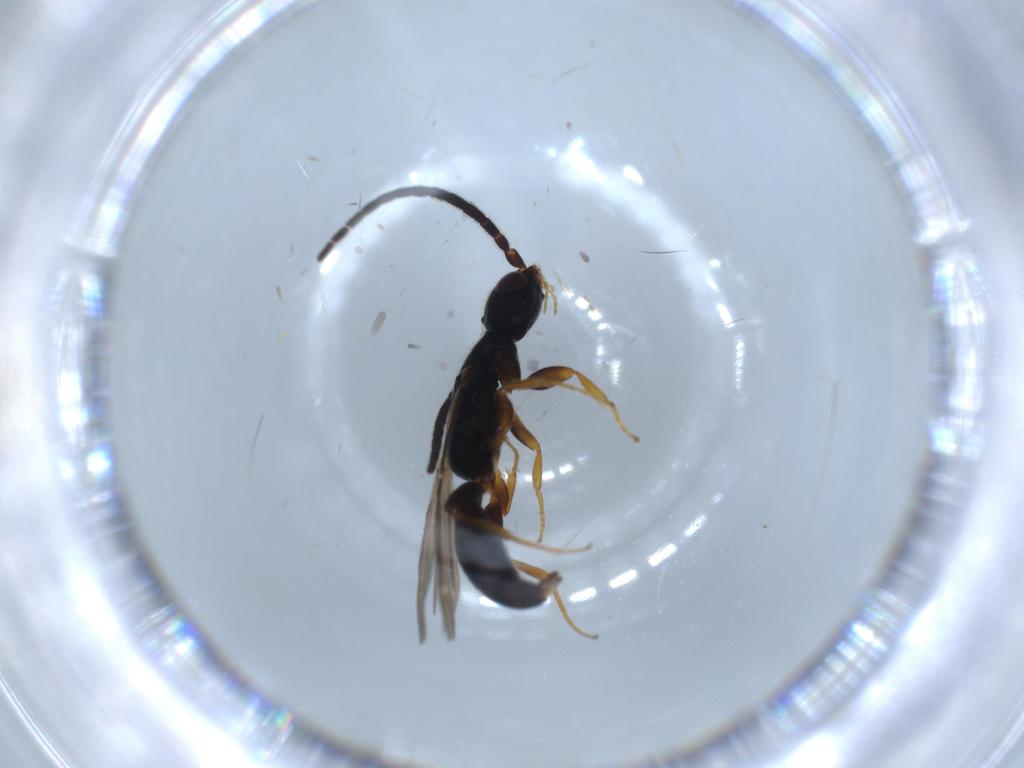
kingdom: Animalia
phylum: Arthropoda
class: Insecta
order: Hymenoptera
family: Bethylidae
